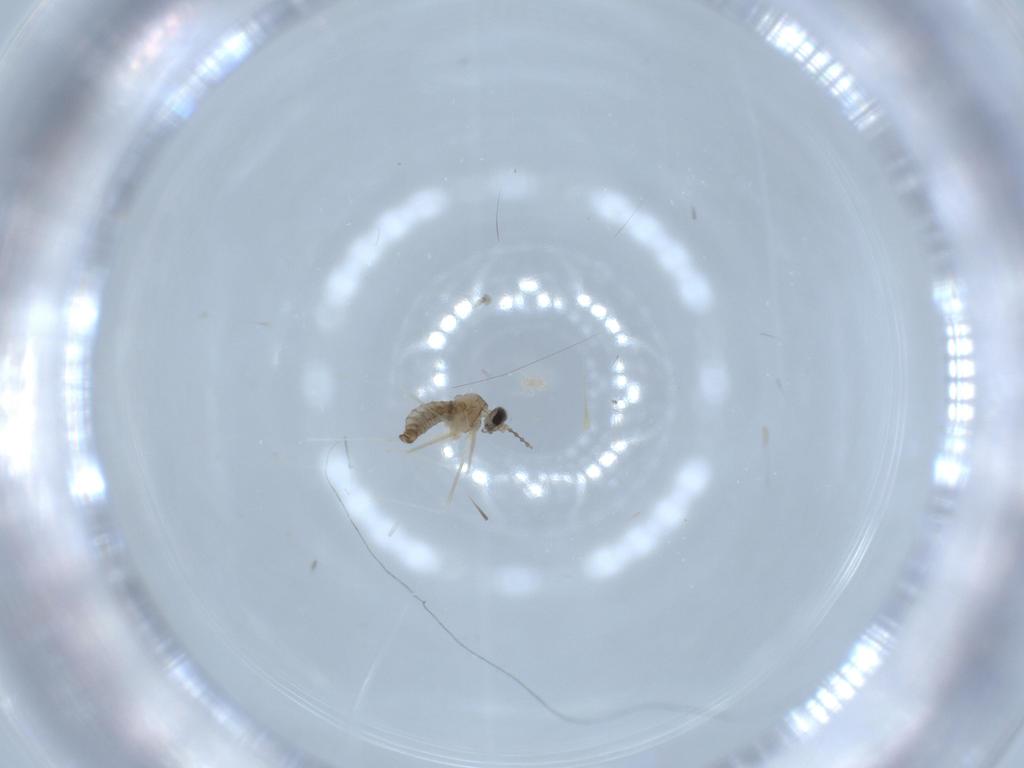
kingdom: Animalia
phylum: Arthropoda
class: Insecta
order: Diptera
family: Cecidomyiidae
